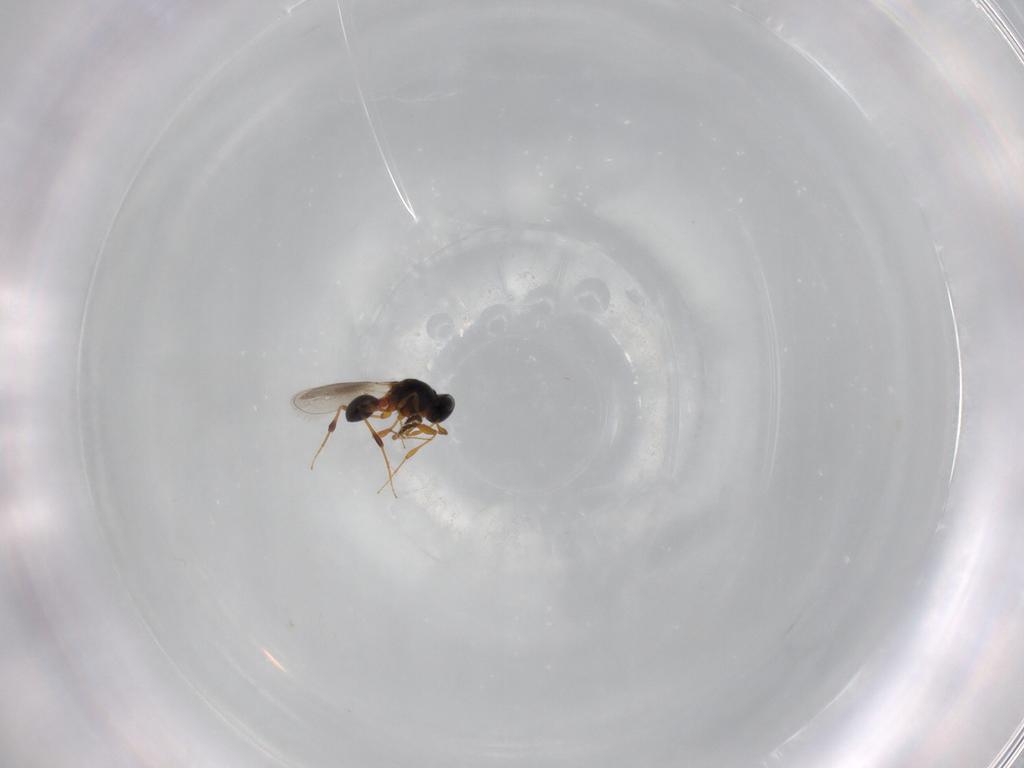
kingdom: Animalia
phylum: Arthropoda
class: Insecta
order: Hymenoptera
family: Platygastridae
